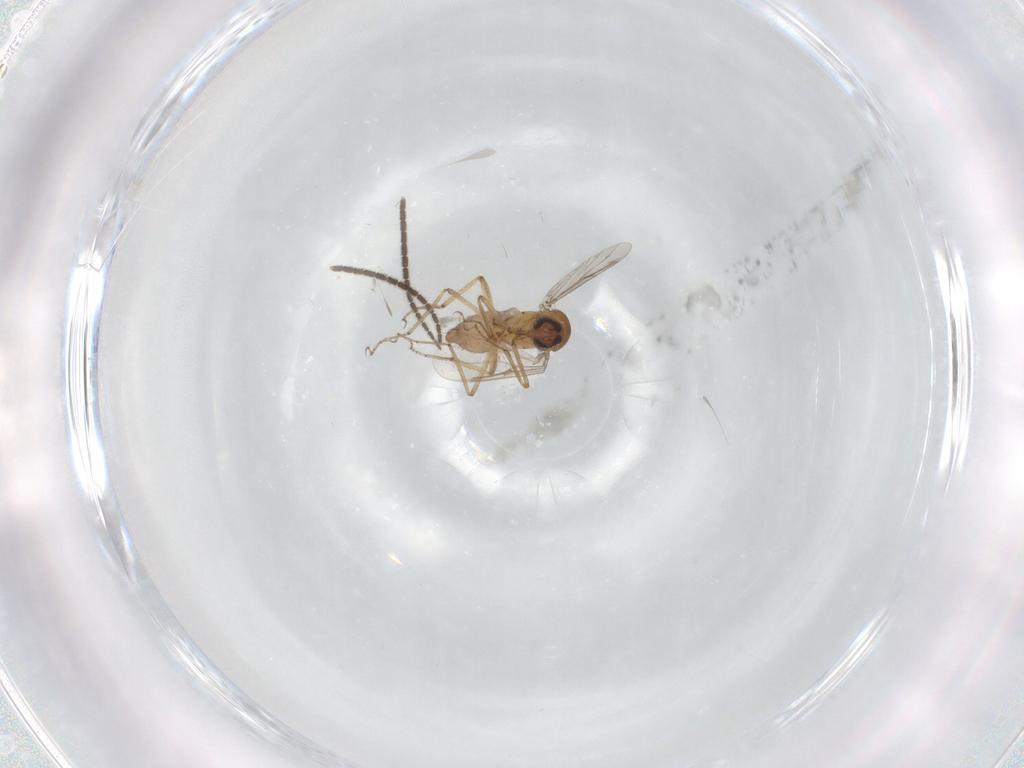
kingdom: Animalia
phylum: Arthropoda
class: Insecta
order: Diptera
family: Sciaridae
